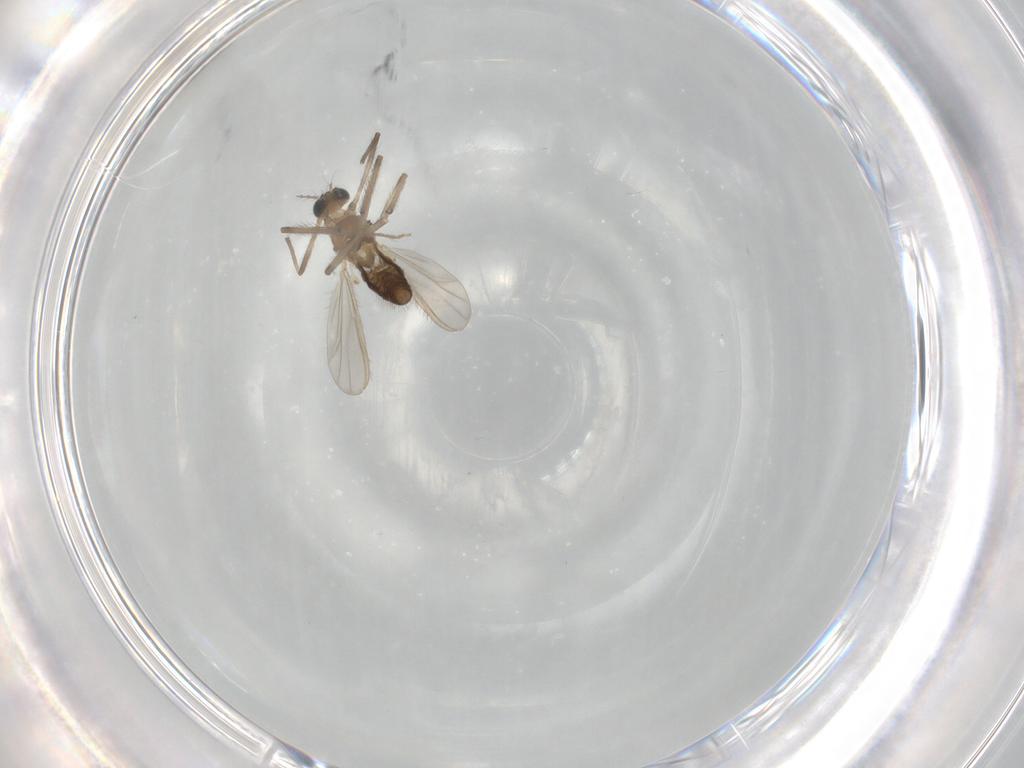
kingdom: Animalia
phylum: Arthropoda
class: Insecta
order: Diptera
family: Chironomidae
